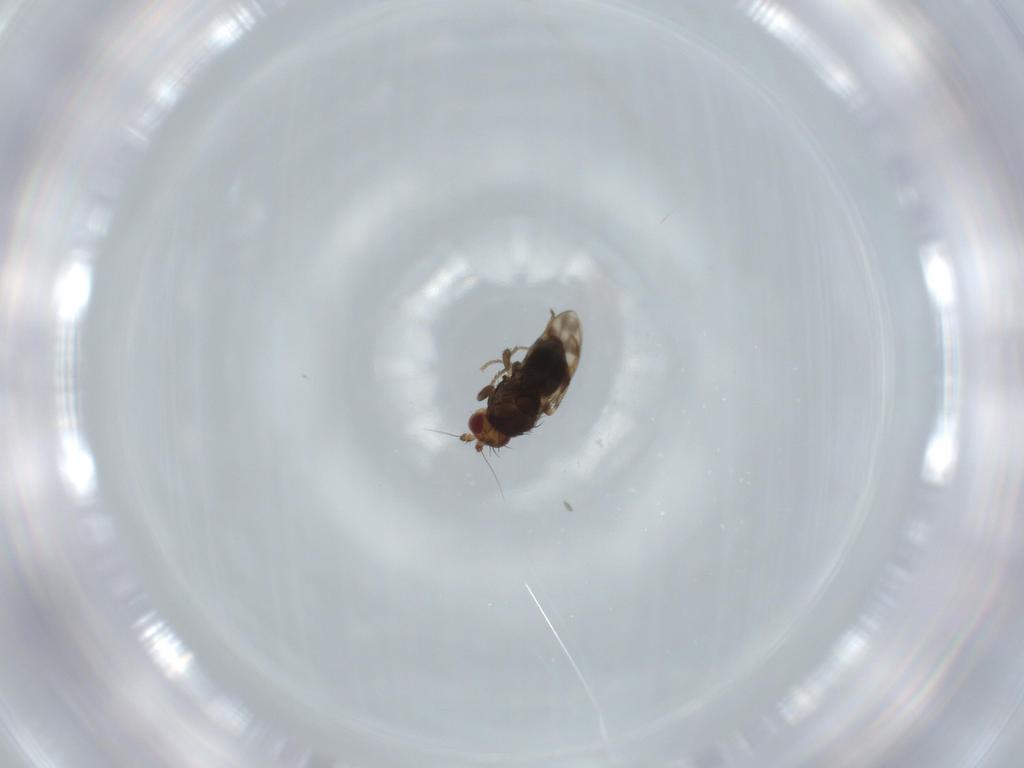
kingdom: Animalia
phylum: Arthropoda
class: Insecta
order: Diptera
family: Sphaeroceridae
